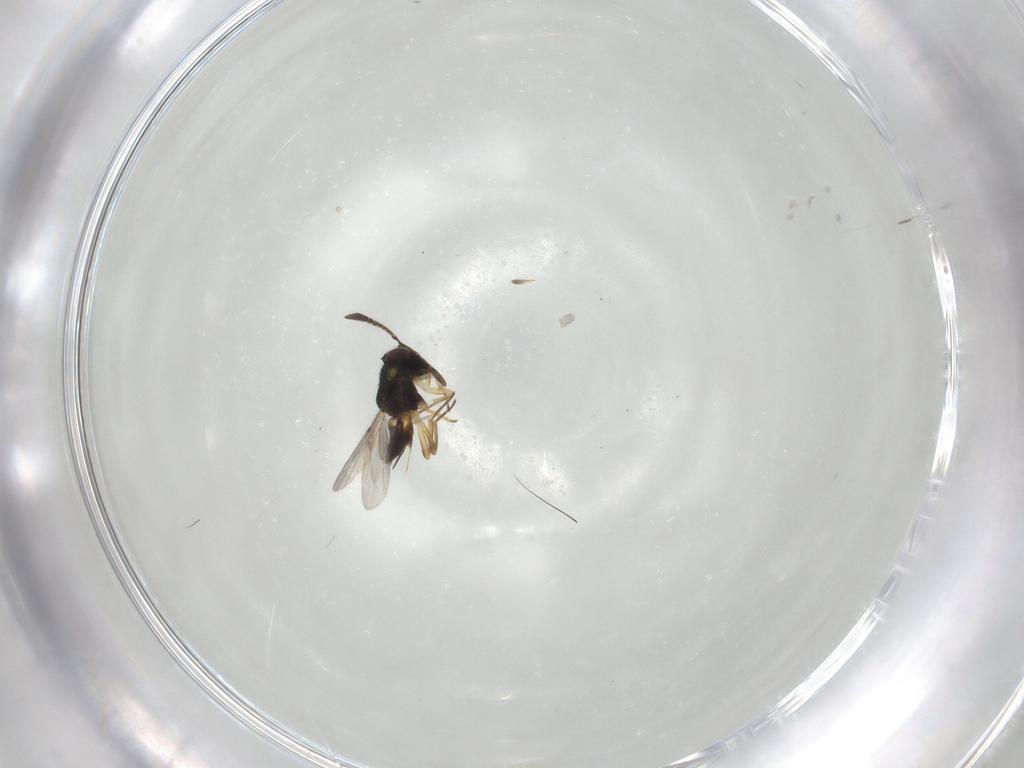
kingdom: Animalia
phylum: Arthropoda
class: Insecta
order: Hymenoptera
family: Encyrtidae
